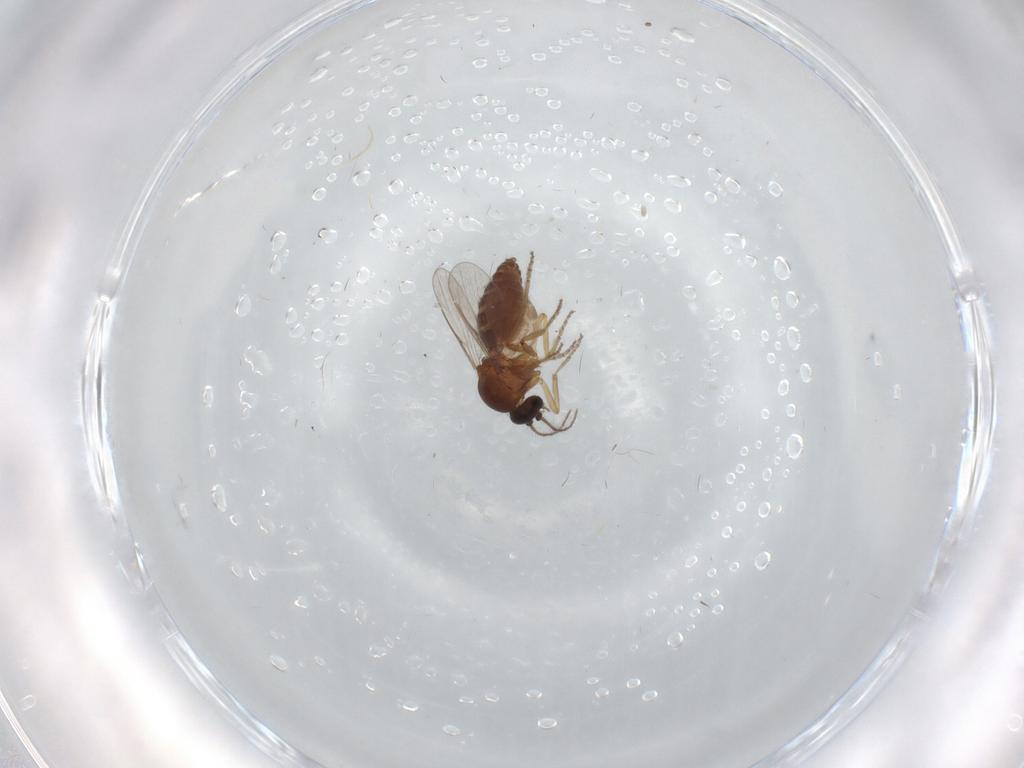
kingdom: Animalia
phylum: Arthropoda
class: Insecta
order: Diptera
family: Ceratopogonidae
